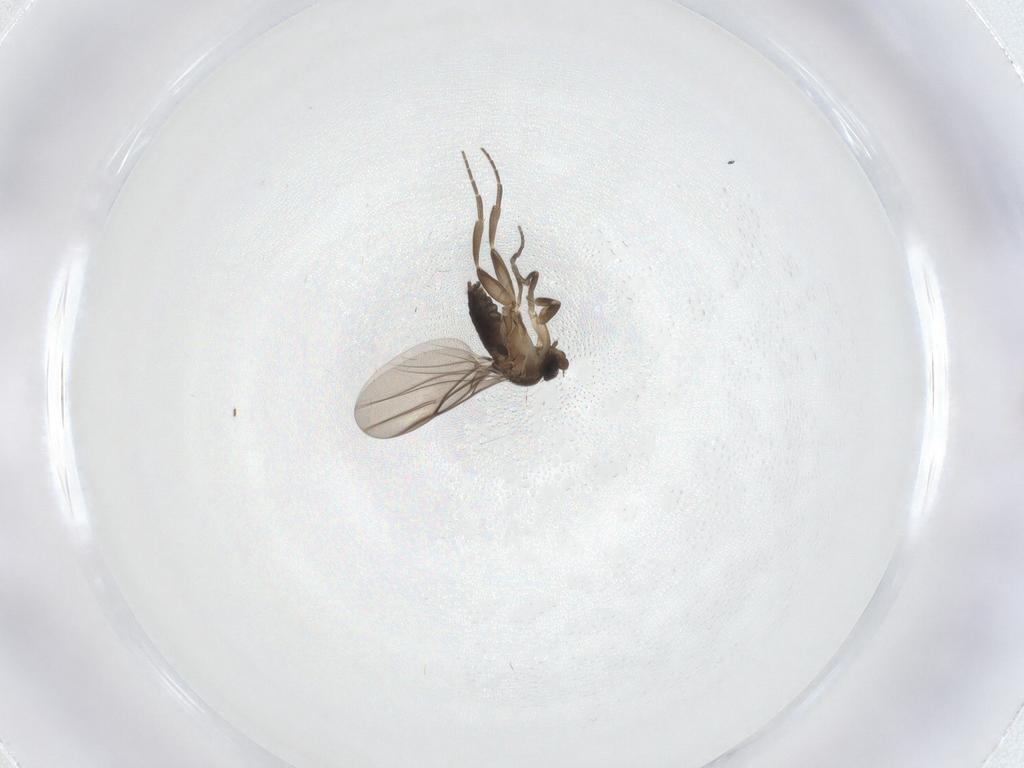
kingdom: Animalia
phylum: Arthropoda
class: Insecta
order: Diptera
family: Phoridae
